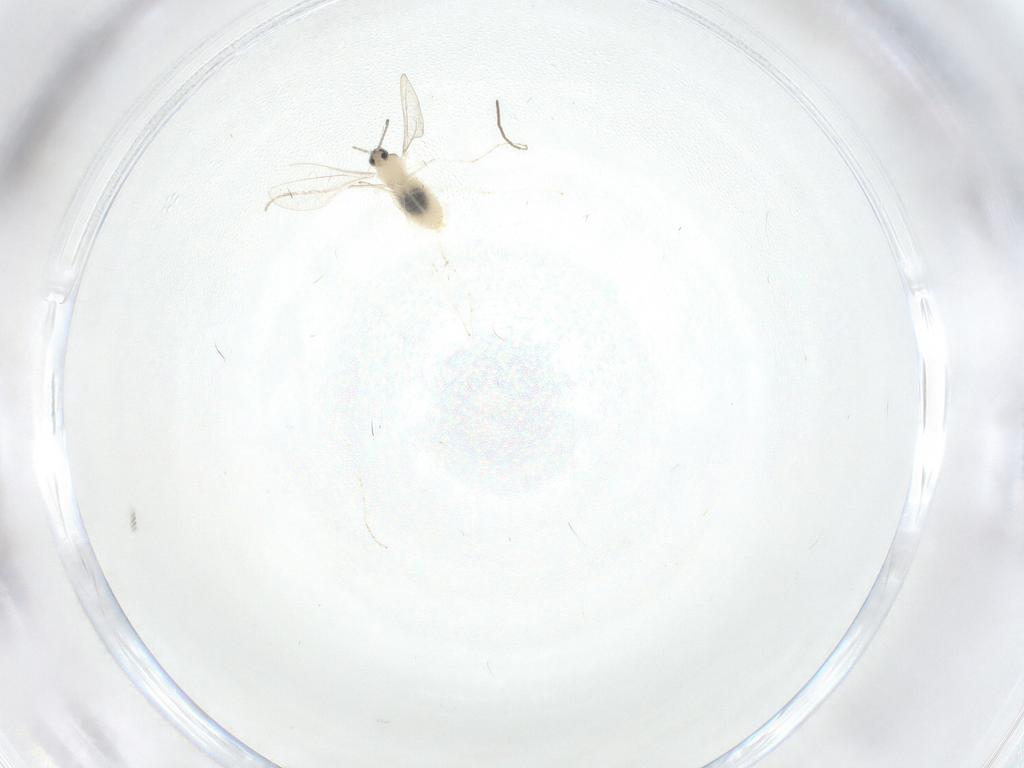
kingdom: Animalia
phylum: Arthropoda
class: Insecta
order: Diptera
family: Cecidomyiidae
